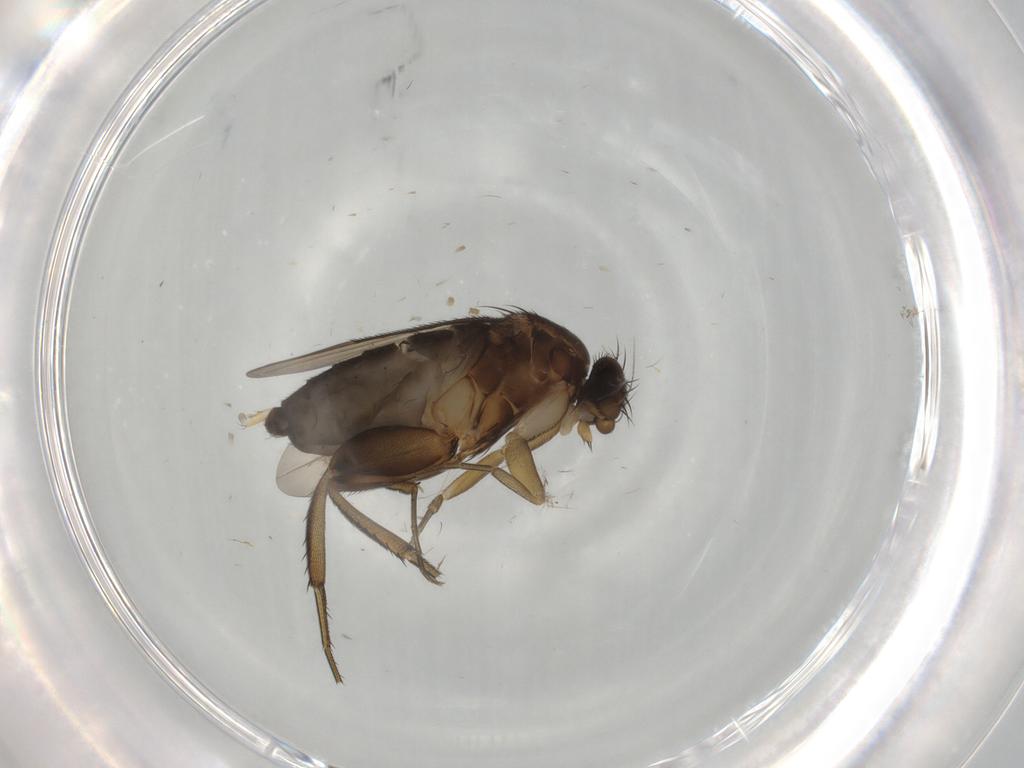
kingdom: Animalia
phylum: Arthropoda
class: Insecta
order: Diptera
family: Phoridae
